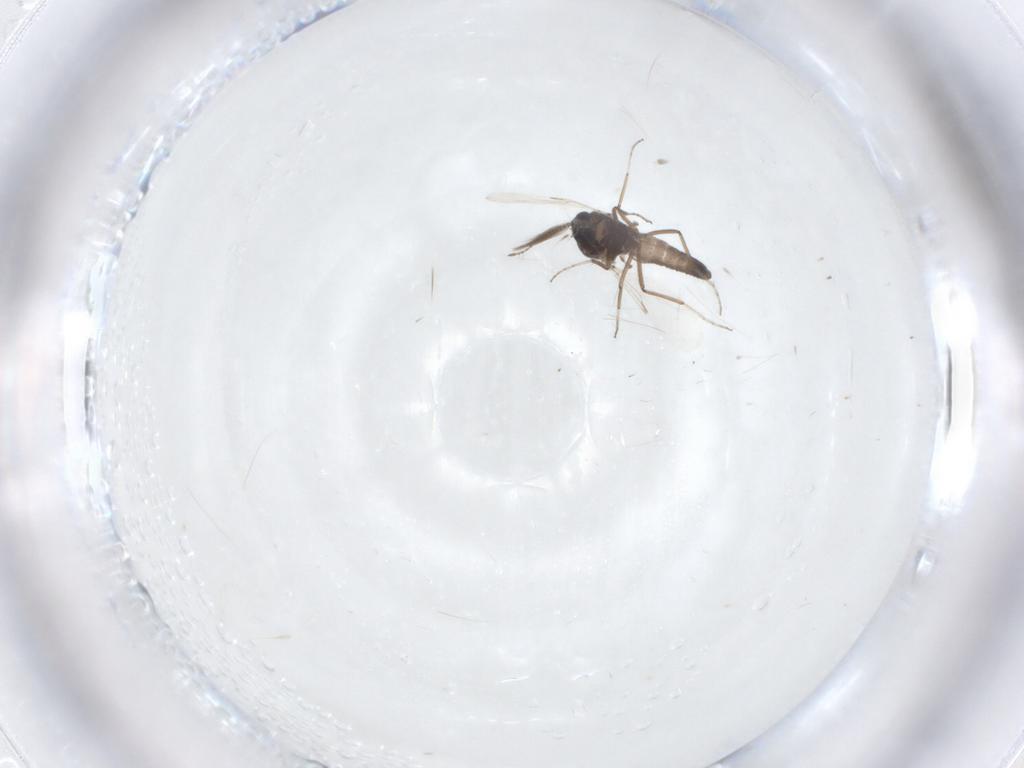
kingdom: Animalia
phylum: Arthropoda
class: Insecta
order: Diptera
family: Ceratopogonidae
